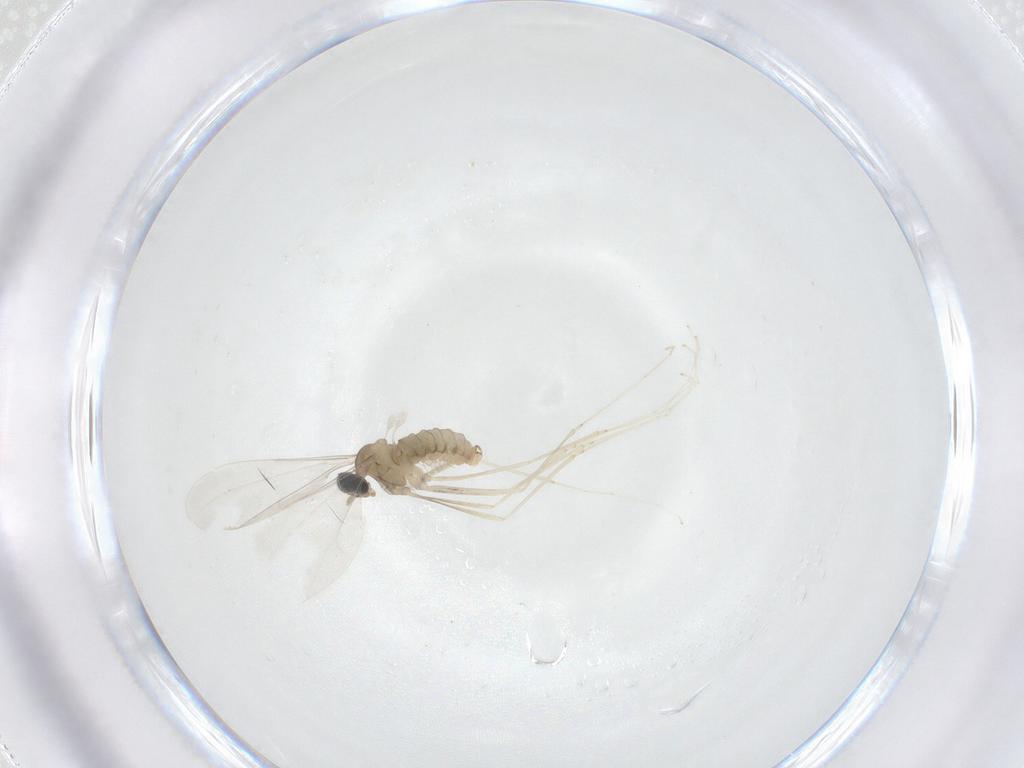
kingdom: Animalia
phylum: Arthropoda
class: Insecta
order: Diptera
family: Cecidomyiidae
